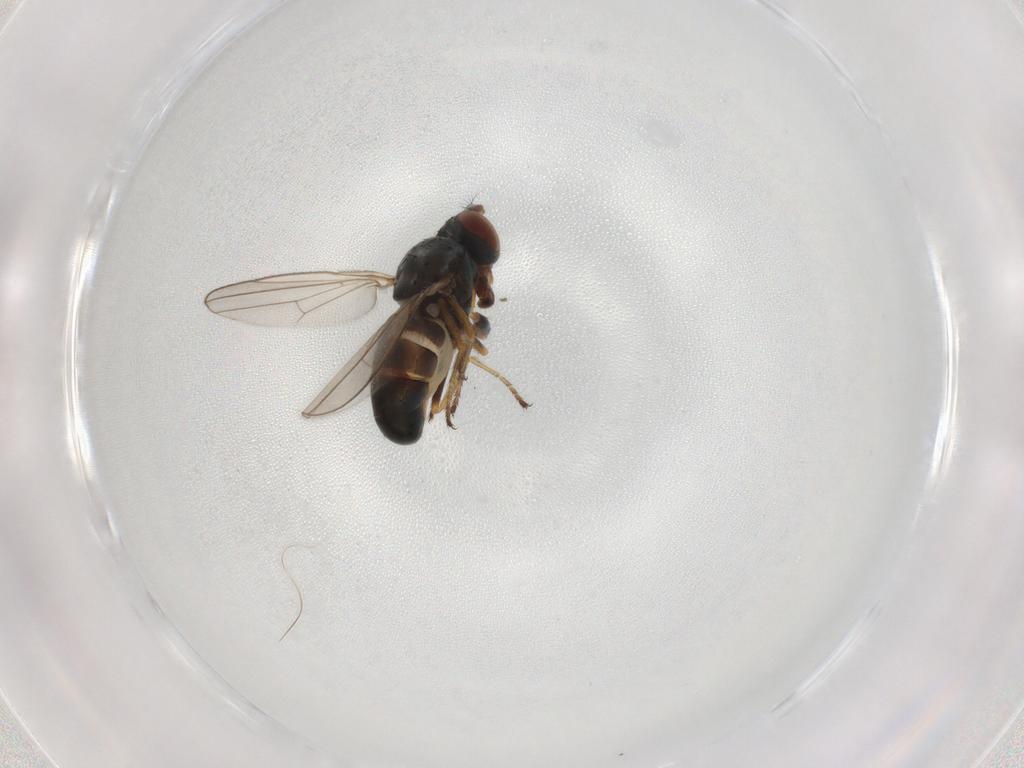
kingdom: Animalia
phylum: Arthropoda
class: Insecta
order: Diptera
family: Ephydridae
